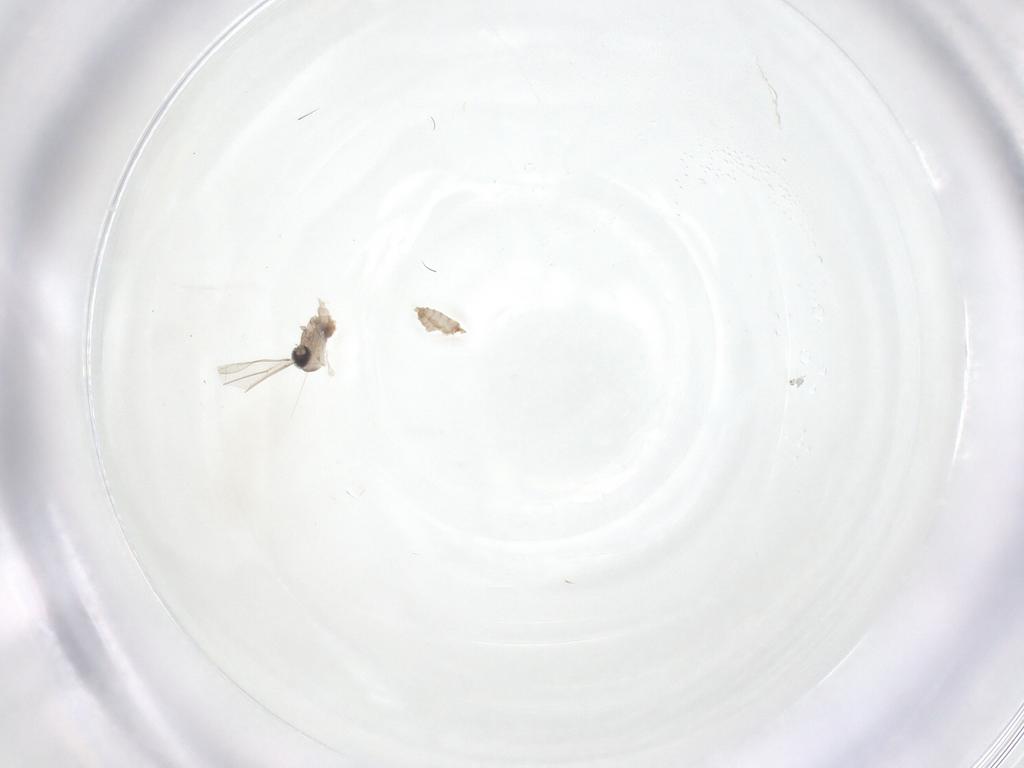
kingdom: Animalia
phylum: Arthropoda
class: Insecta
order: Diptera
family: Cecidomyiidae
